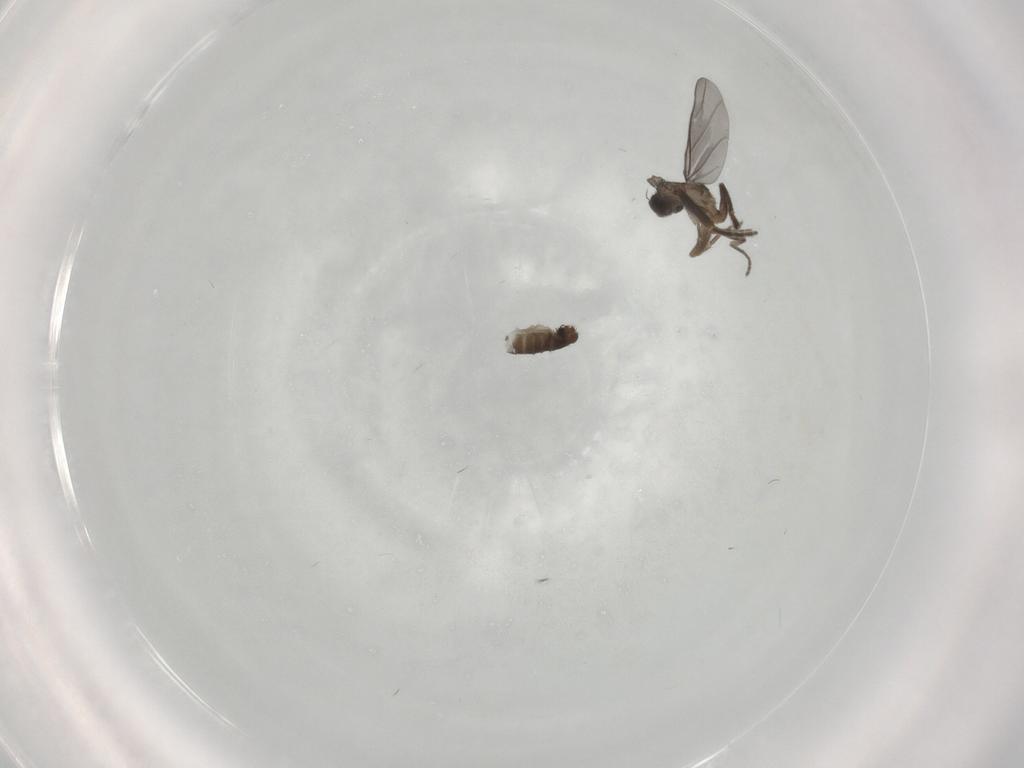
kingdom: Animalia
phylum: Arthropoda
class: Insecta
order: Diptera
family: Phoridae
